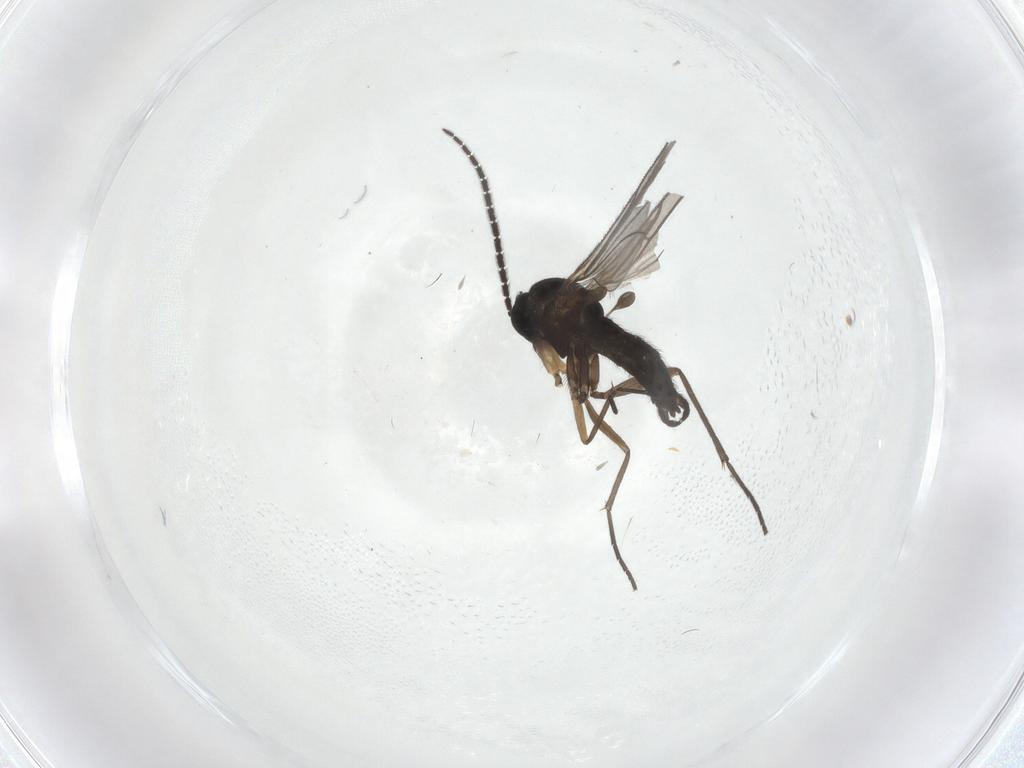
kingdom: Animalia
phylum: Arthropoda
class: Insecta
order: Diptera
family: Sciaridae
